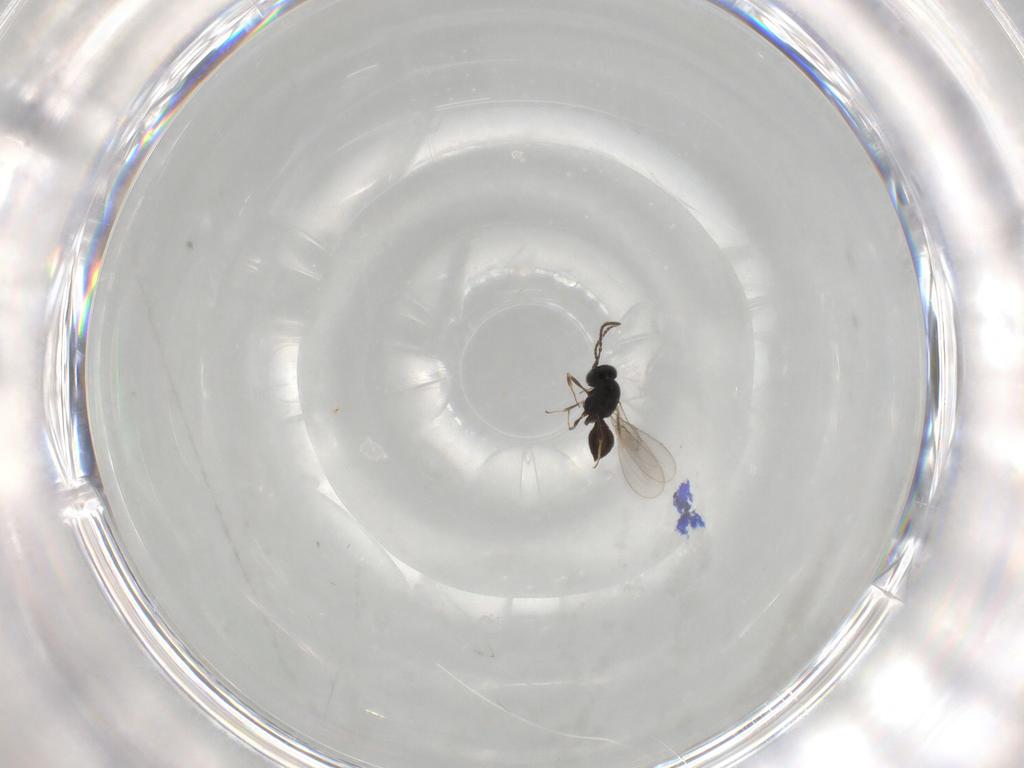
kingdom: Animalia
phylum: Arthropoda
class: Insecta
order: Hymenoptera
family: Scelionidae
